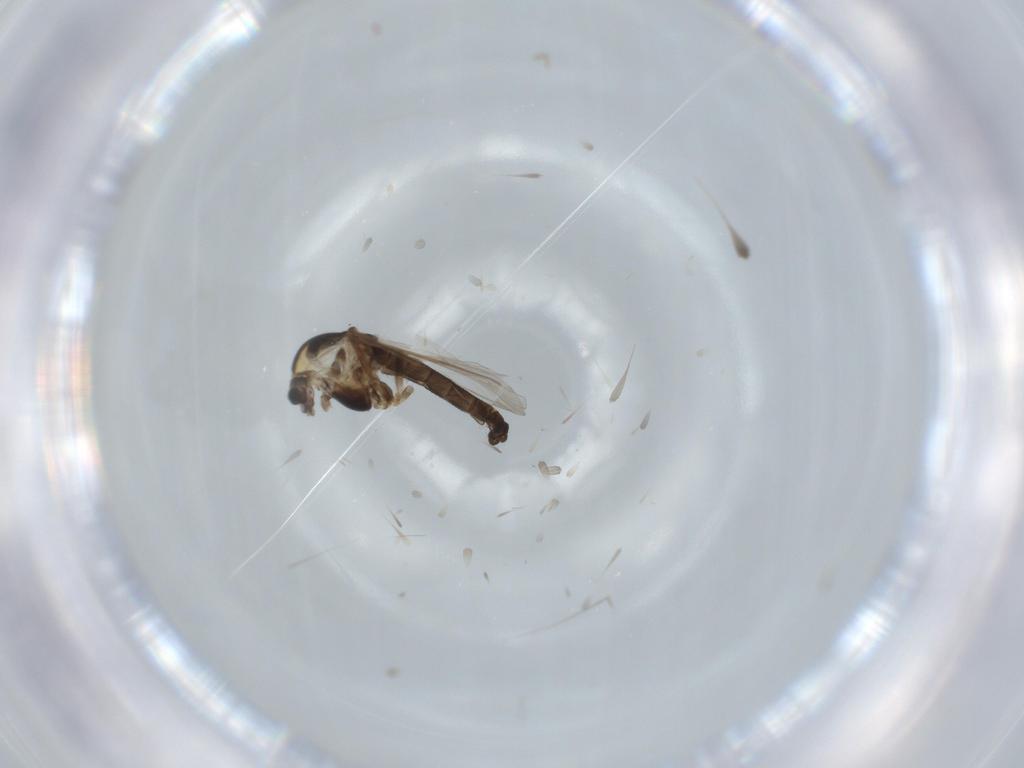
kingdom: Animalia
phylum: Arthropoda
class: Insecta
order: Diptera
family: Chironomidae
